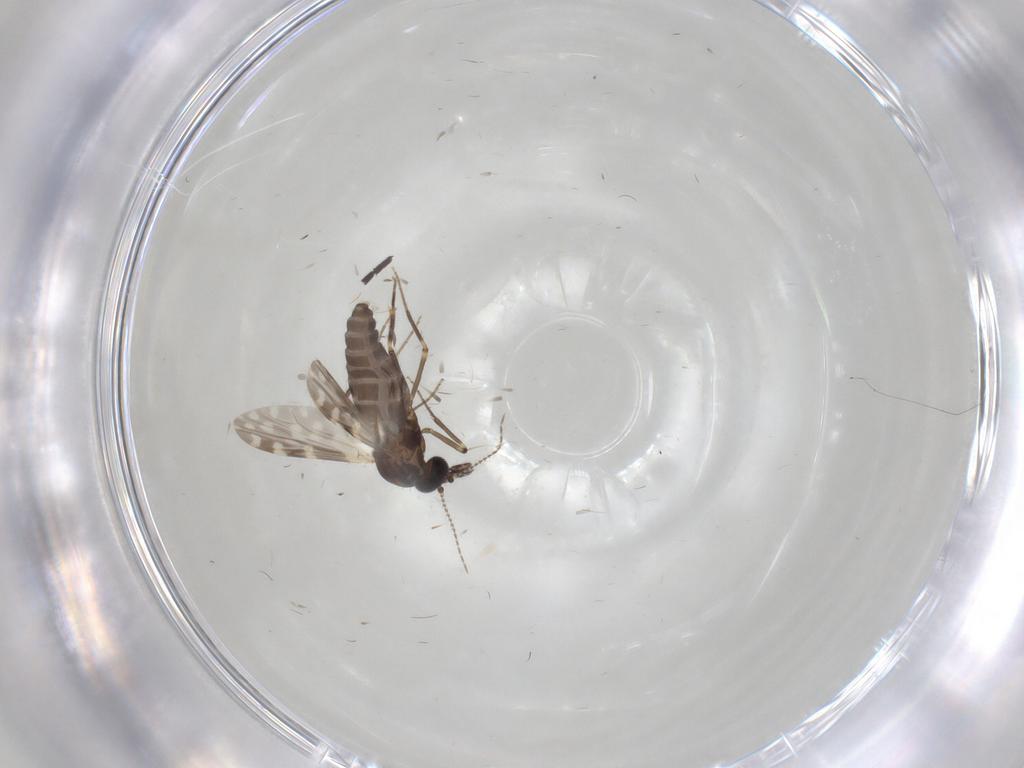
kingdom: Animalia
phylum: Arthropoda
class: Insecta
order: Diptera
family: Ceratopogonidae
